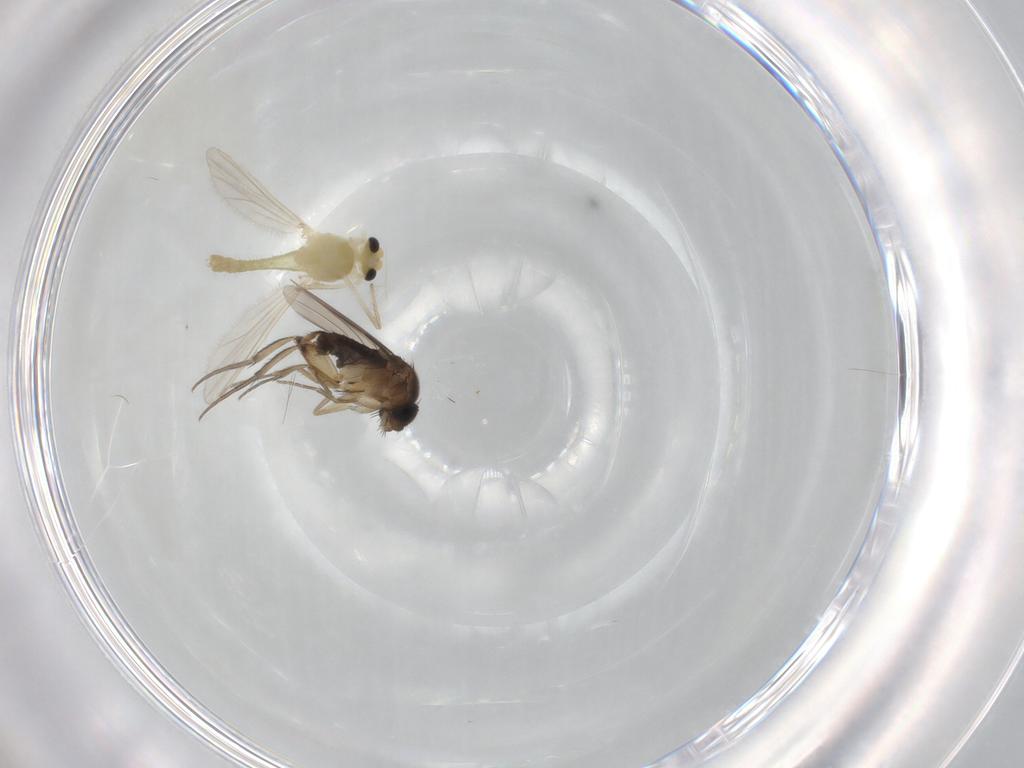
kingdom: Animalia
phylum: Arthropoda
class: Insecta
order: Diptera
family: Chironomidae
